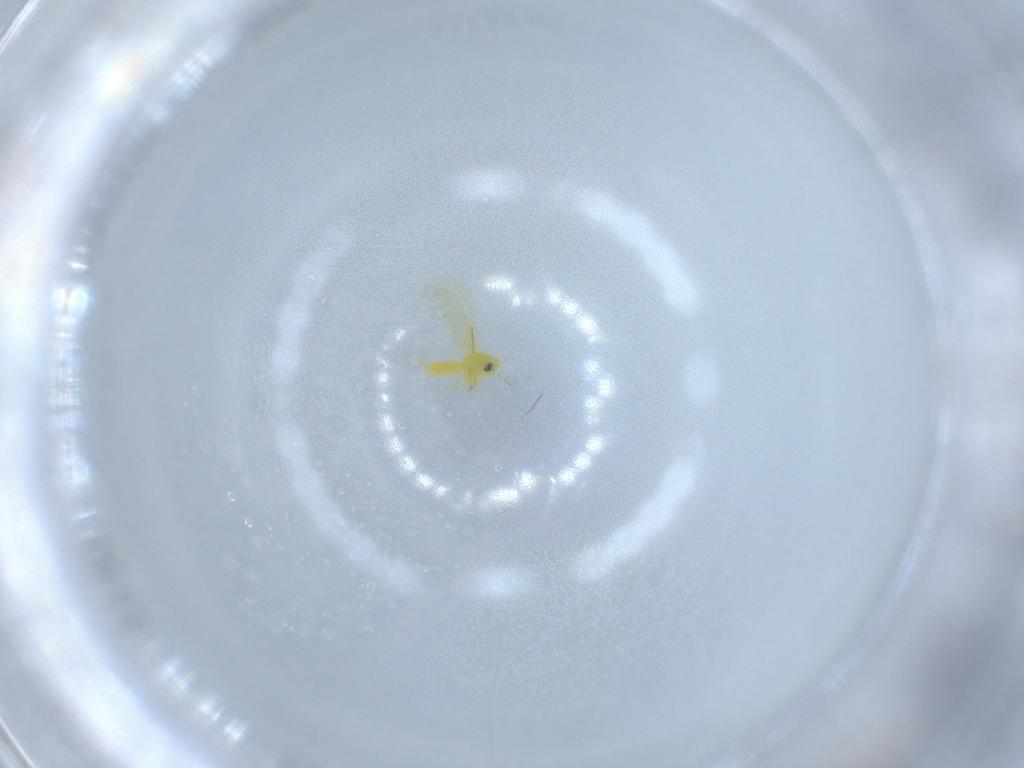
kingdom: Animalia
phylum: Arthropoda
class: Insecta
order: Hemiptera
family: Aleyrodidae
